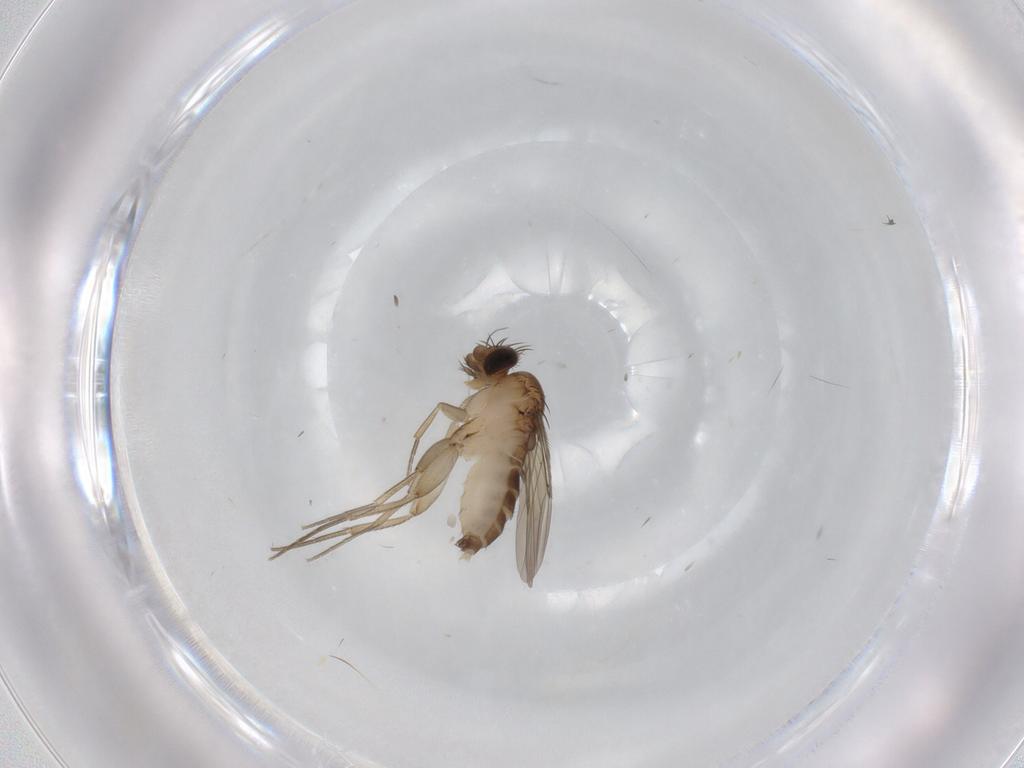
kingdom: Animalia
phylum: Arthropoda
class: Insecta
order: Diptera
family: Phoridae
